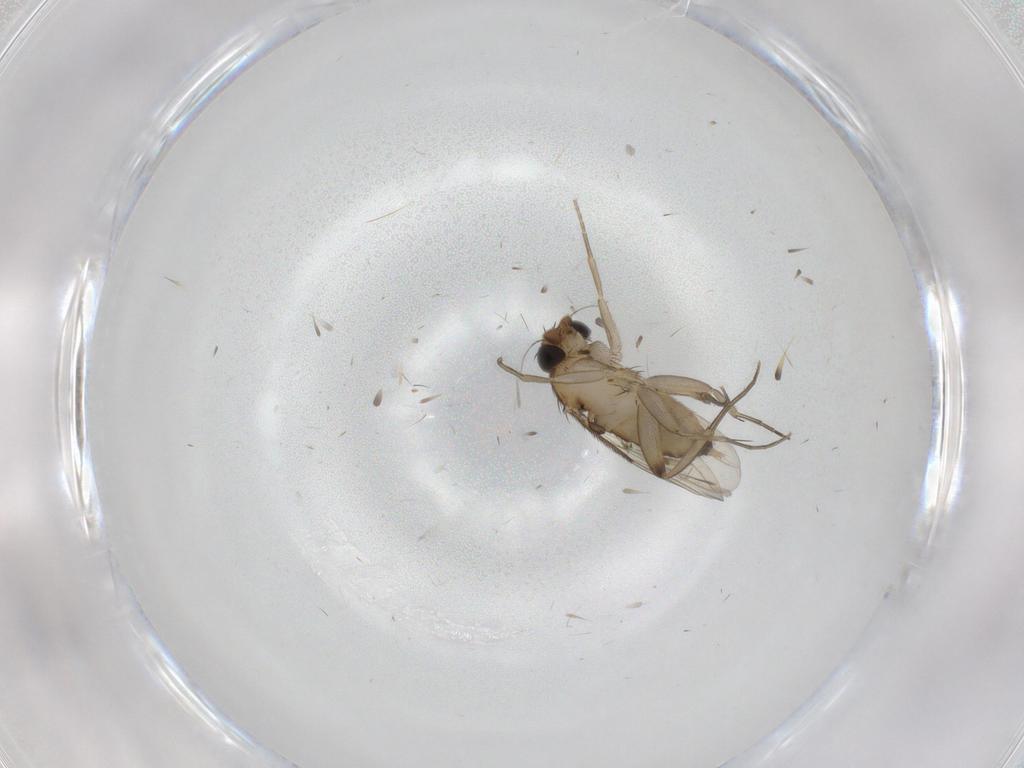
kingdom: Animalia
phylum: Arthropoda
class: Insecta
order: Diptera
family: Phoridae
